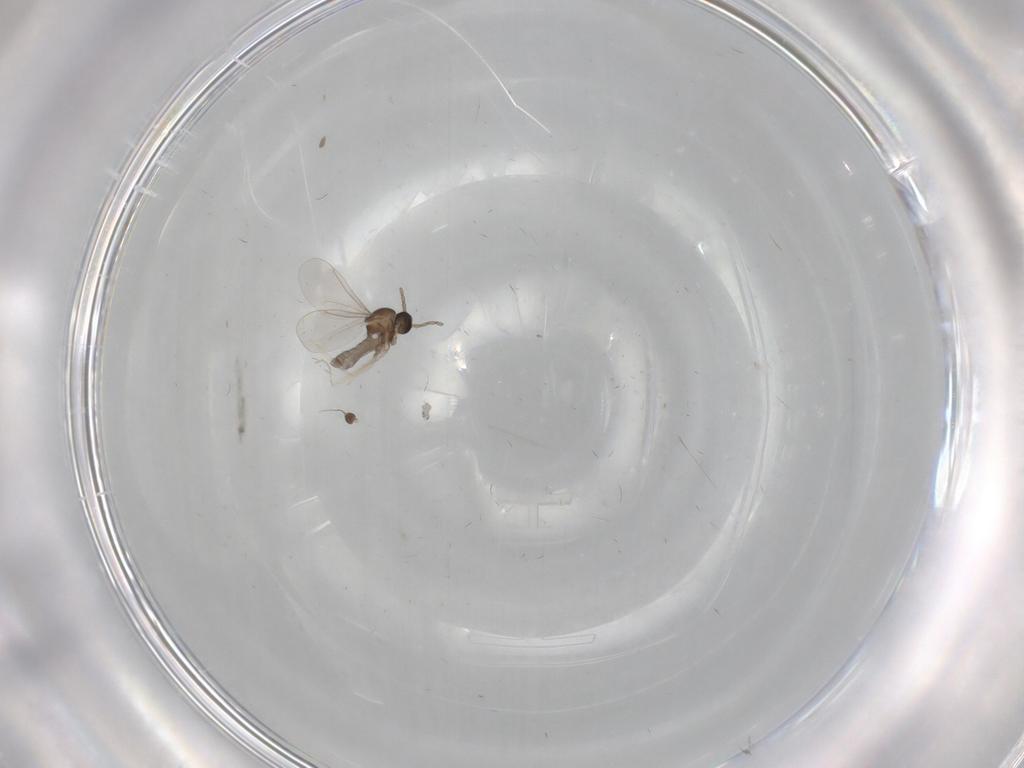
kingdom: Animalia
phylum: Arthropoda
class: Insecta
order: Diptera
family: Cecidomyiidae
